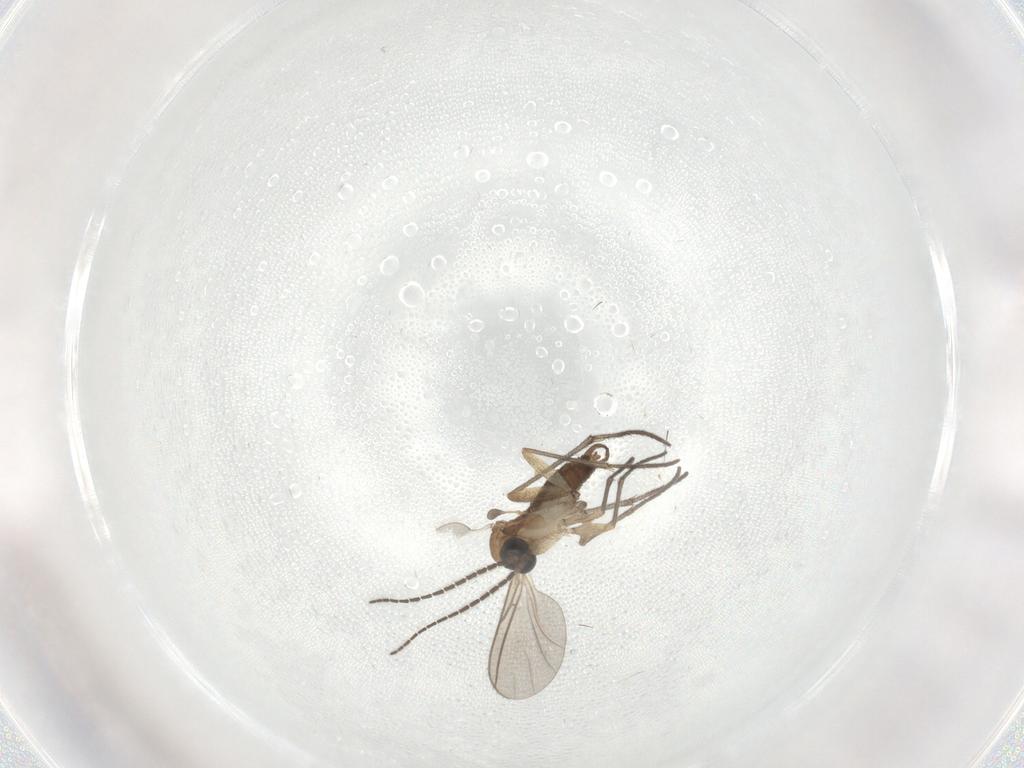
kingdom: Animalia
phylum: Arthropoda
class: Insecta
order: Diptera
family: Sciaridae
